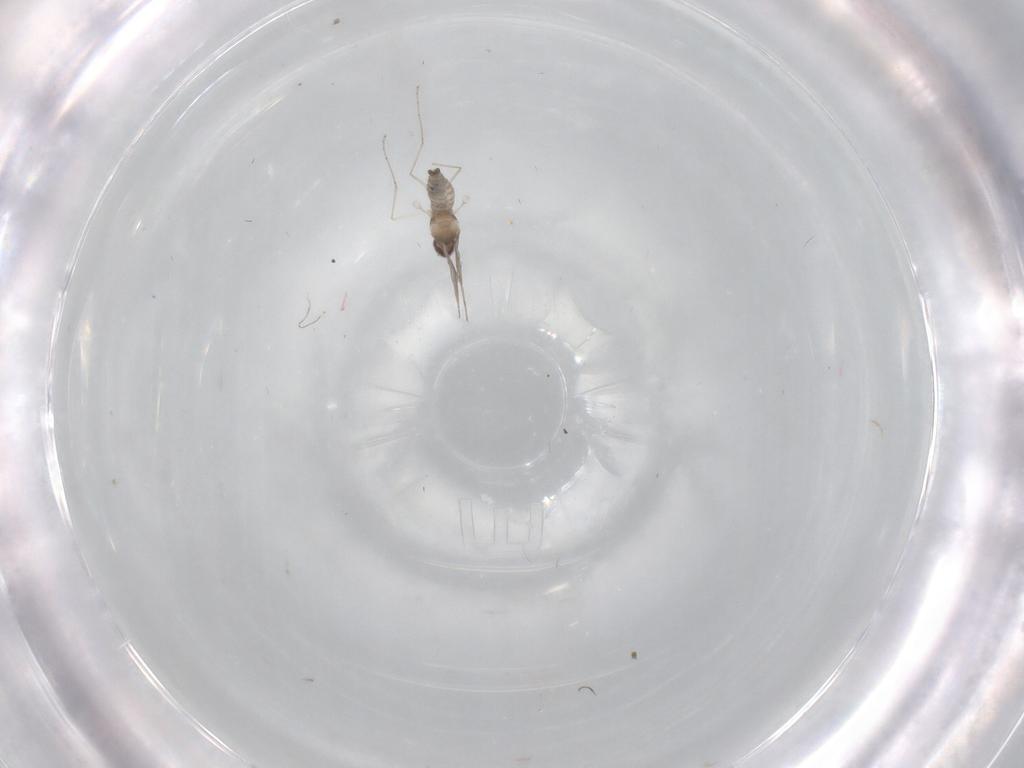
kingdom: Animalia
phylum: Arthropoda
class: Insecta
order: Diptera
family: Cecidomyiidae
